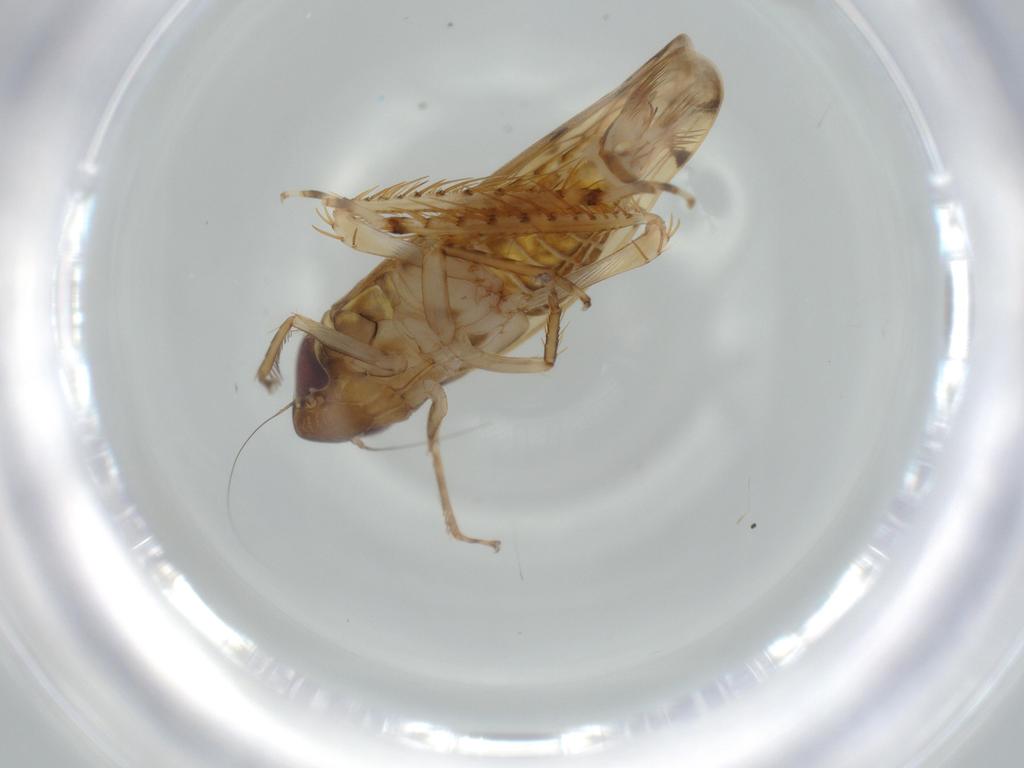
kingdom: Animalia
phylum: Arthropoda
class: Insecta
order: Hemiptera
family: Cicadellidae
